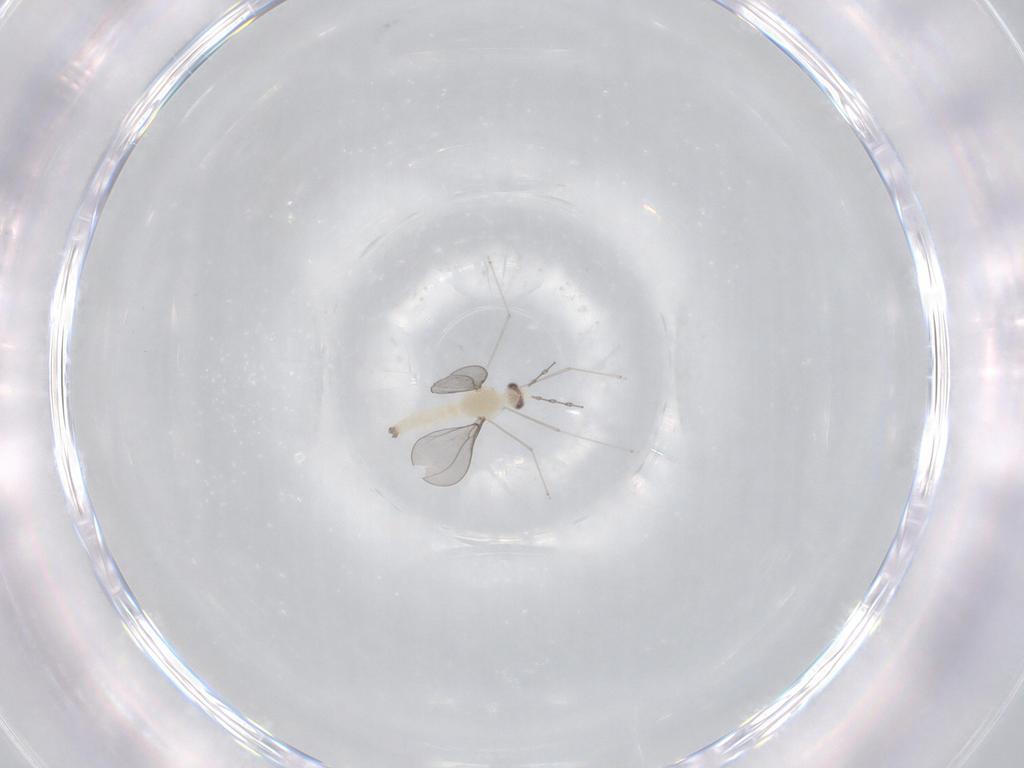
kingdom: Animalia
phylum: Arthropoda
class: Insecta
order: Diptera
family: Cecidomyiidae
